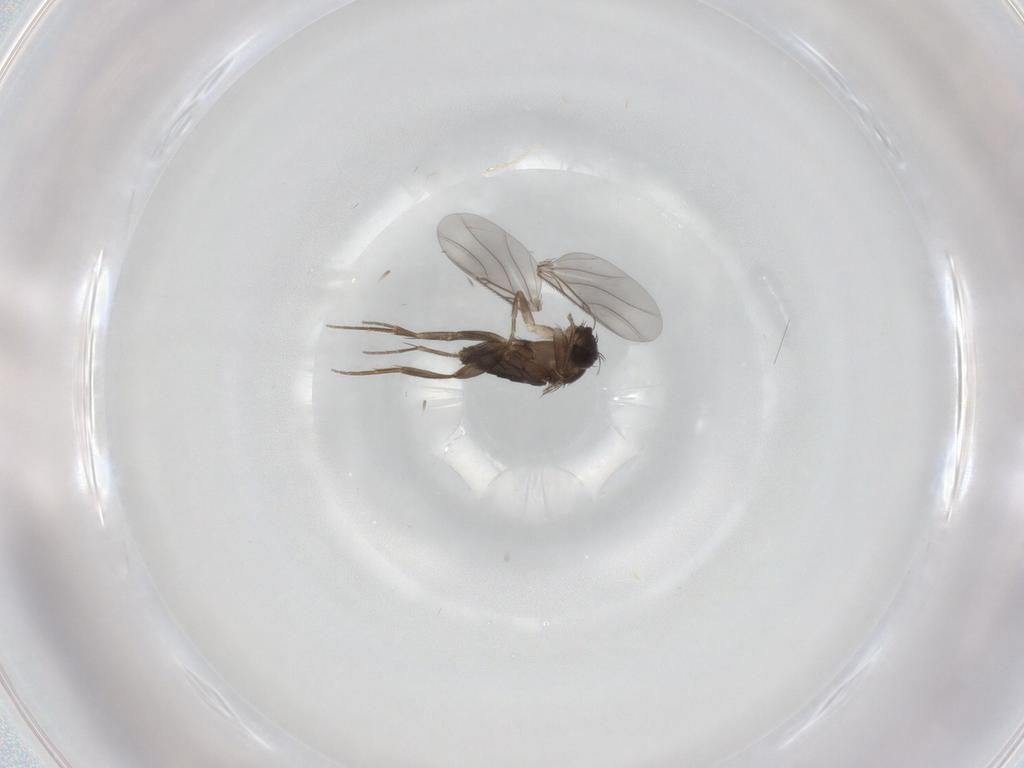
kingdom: Animalia
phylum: Arthropoda
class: Insecta
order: Diptera
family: Phoridae
